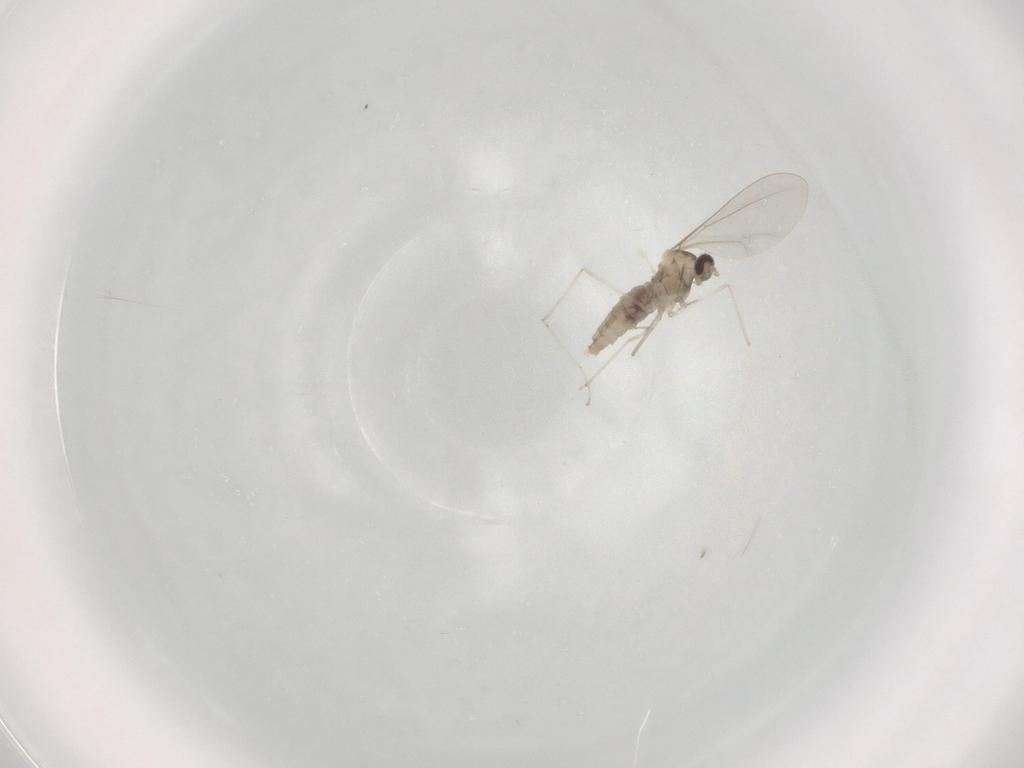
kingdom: Animalia
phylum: Arthropoda
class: Insecta
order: Diptera
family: Cecidomyiidae
